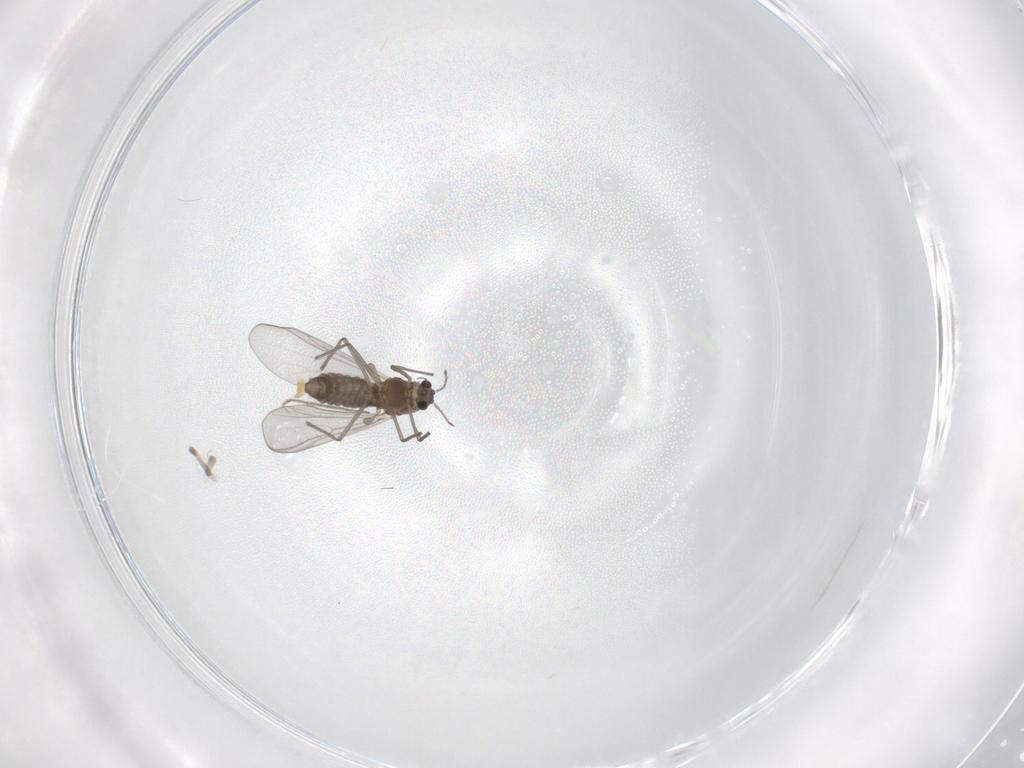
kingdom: Animalia
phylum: Arthropoda
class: Insecta
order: Diptera
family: Chironomidae
